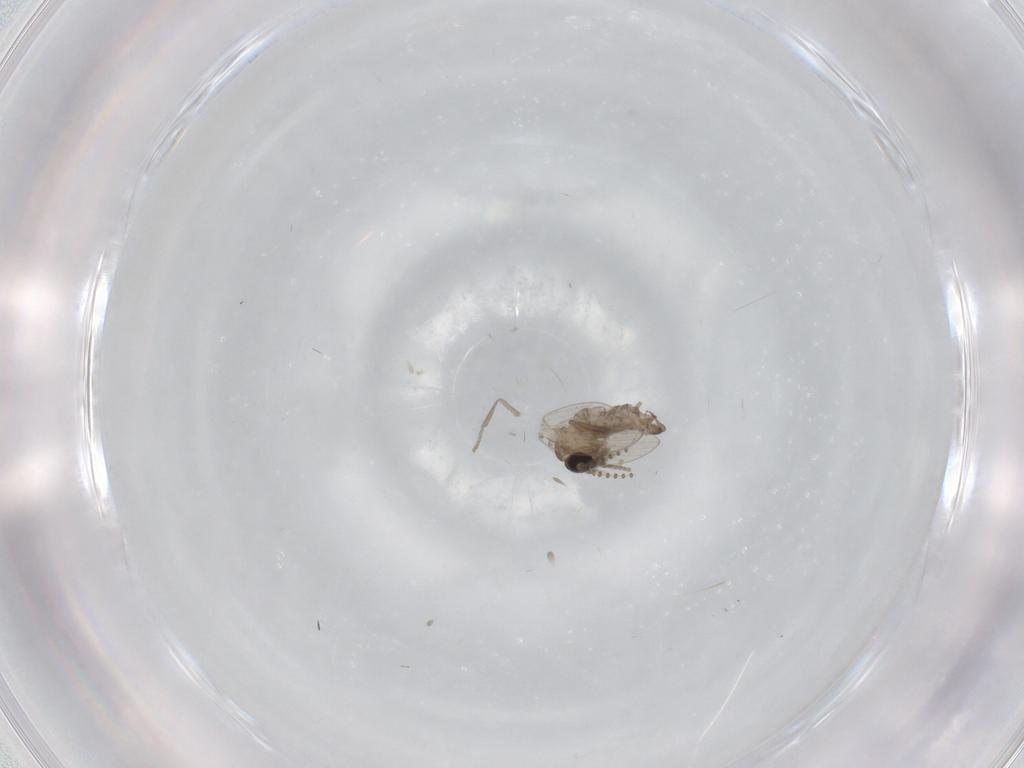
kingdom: Animalia
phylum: Arthropoda
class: Insecta
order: Diptera
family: Psychodidae
